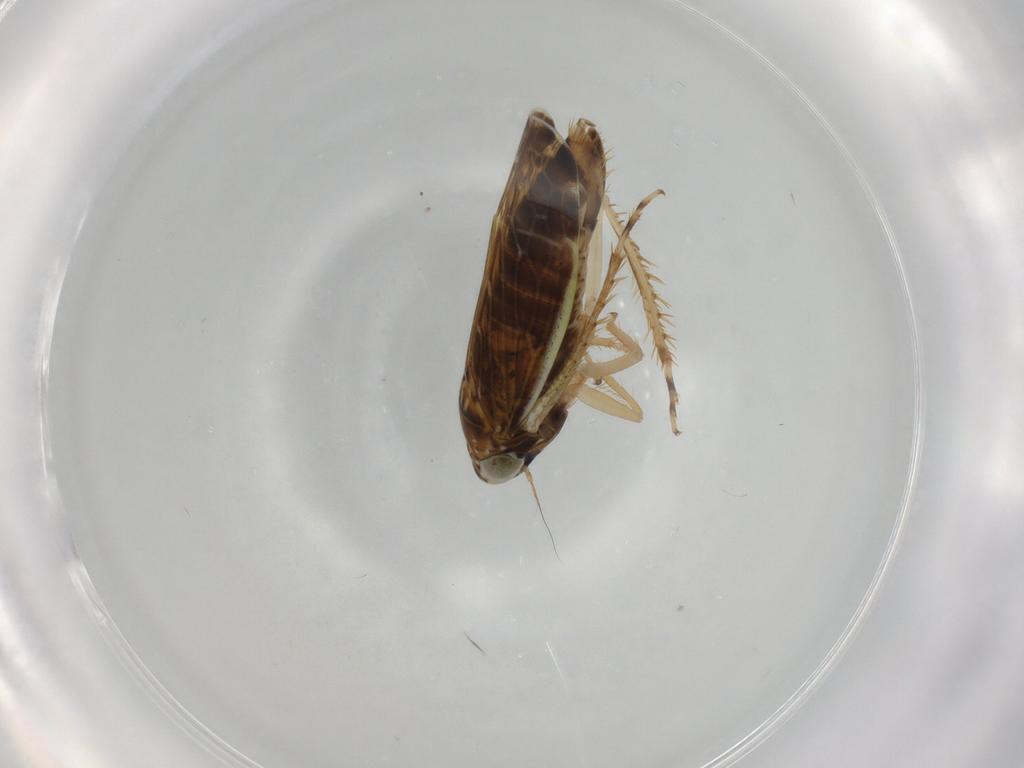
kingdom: Animalia
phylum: Arthropoda
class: Insecta
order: Hemiptera
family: Cicadellidae
